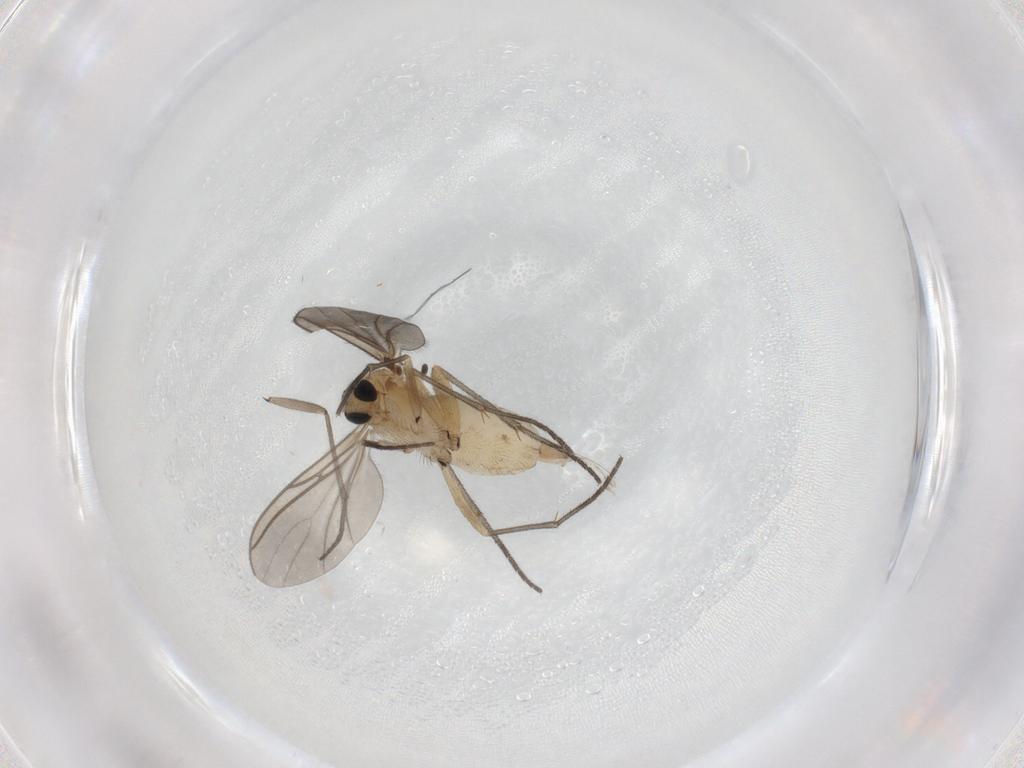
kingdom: Animalia
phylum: Arthropoda
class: Insecta
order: Diptera
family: Sciaridae
